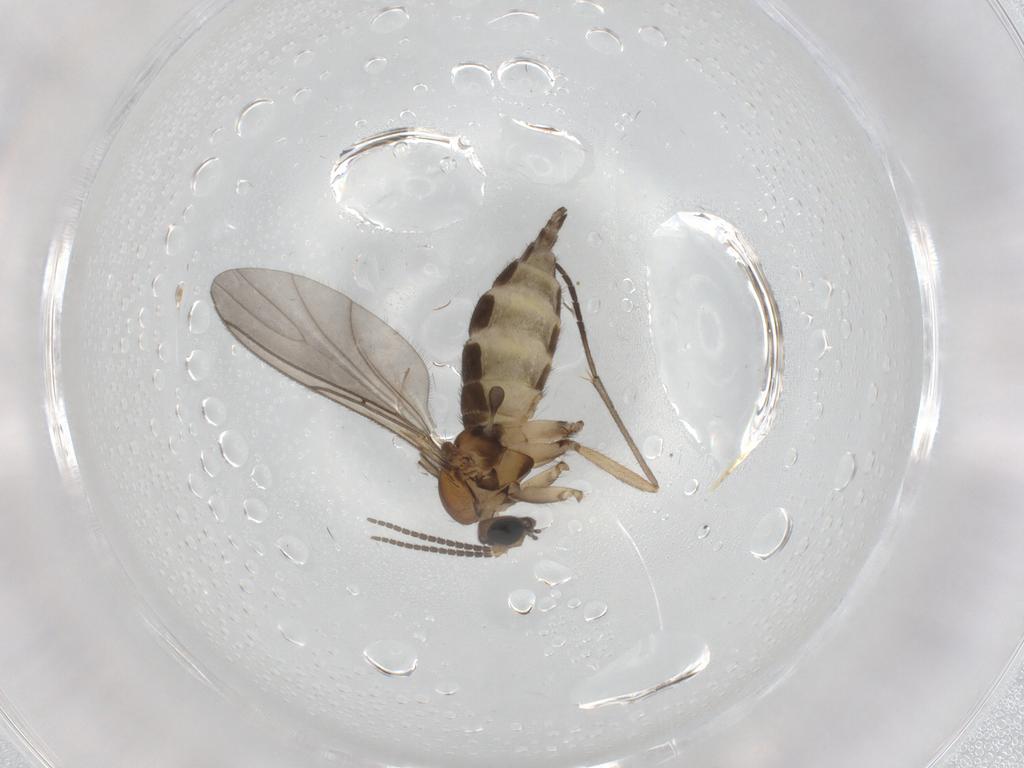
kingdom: Animalia
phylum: Arthropoda
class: Insecta
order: Diptera
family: Sciaridae
